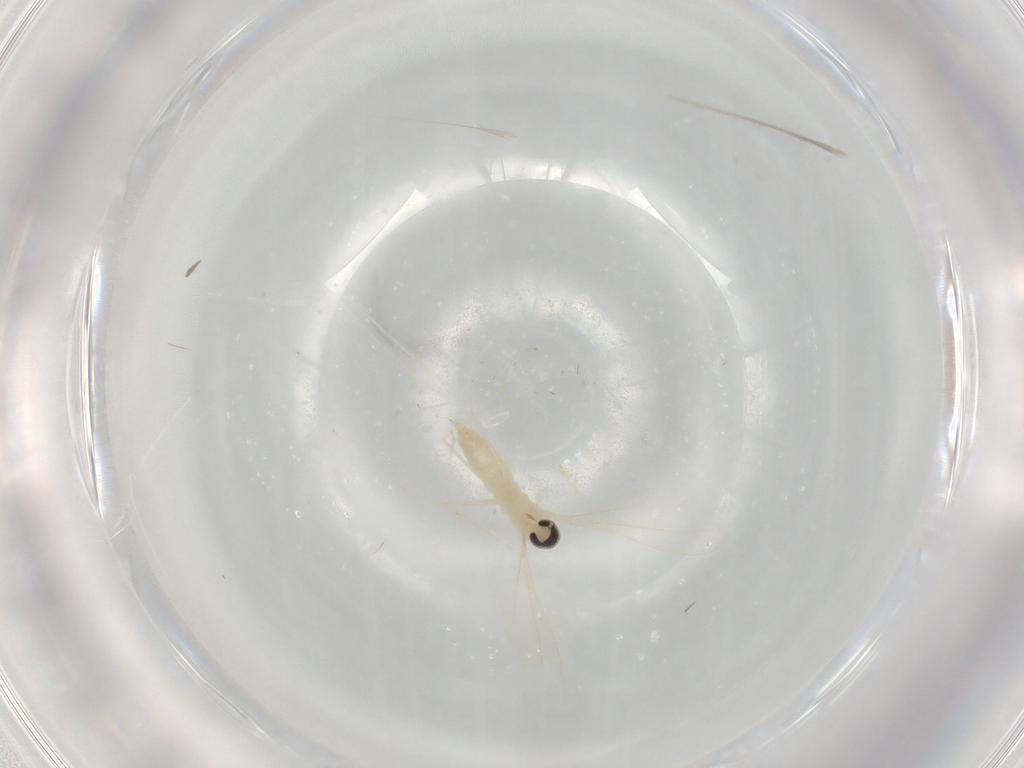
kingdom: Animalia
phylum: Arthropoda
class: Insecta
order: Diptera
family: Cecidomyiidae
